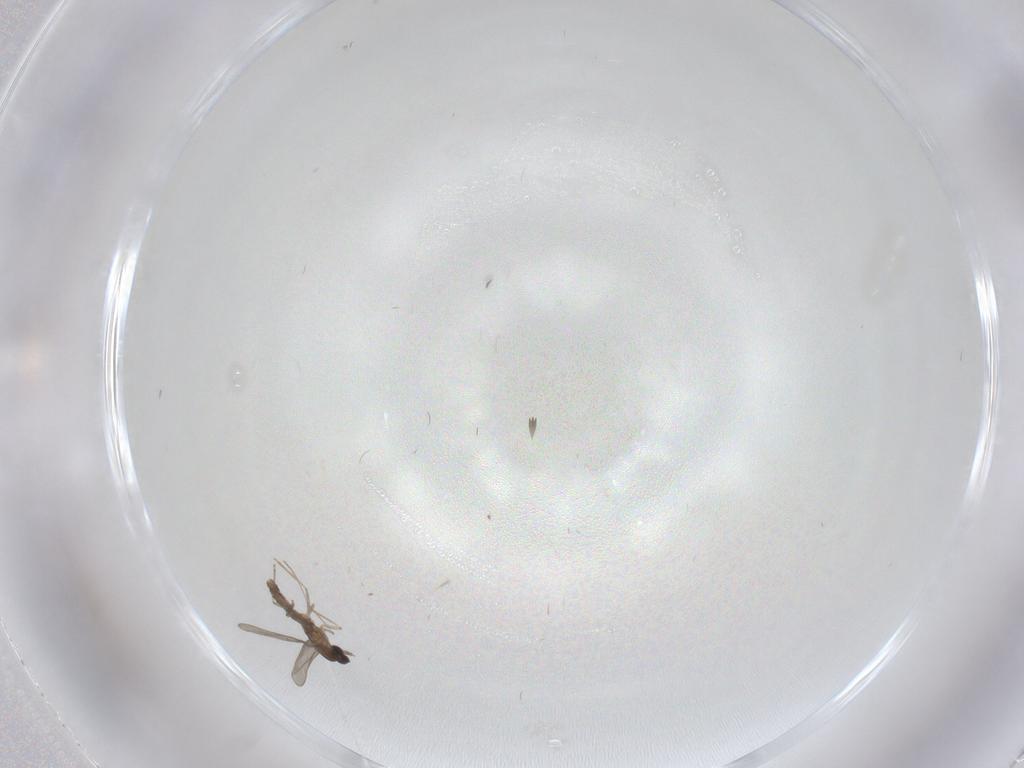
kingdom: Animalia
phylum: Arthropoda
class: Insecta
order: Diptera
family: Cecidomyiidae
